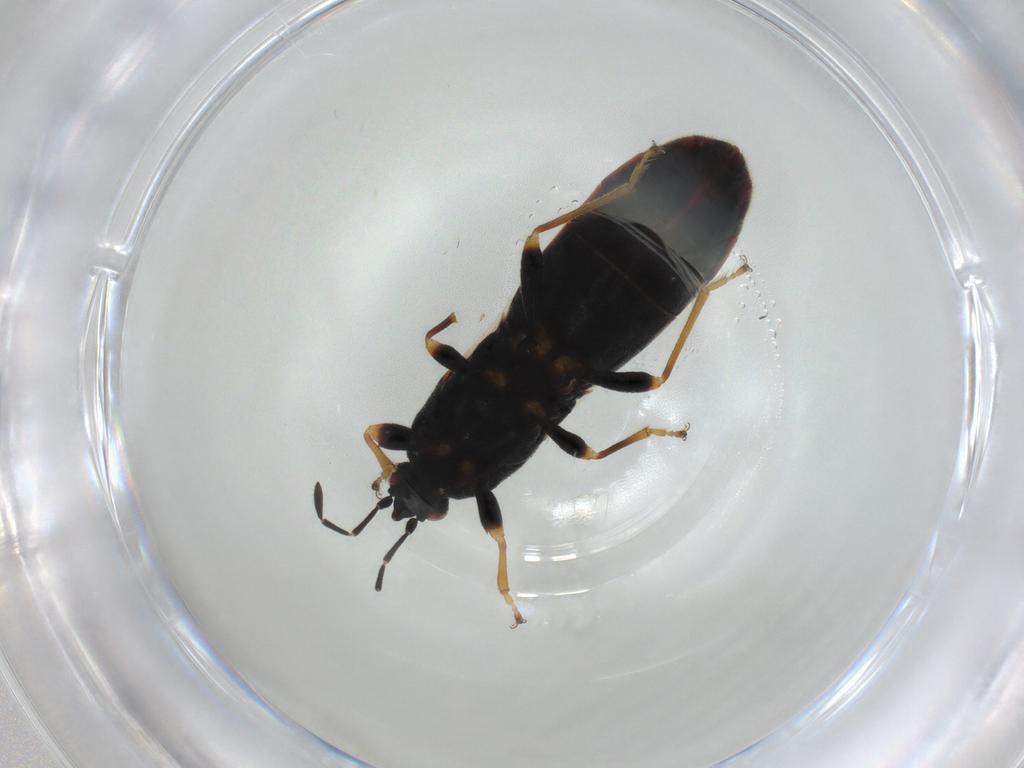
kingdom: Animalia
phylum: Arthropoda
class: Insecta
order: Hemiptera
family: Blissidae
